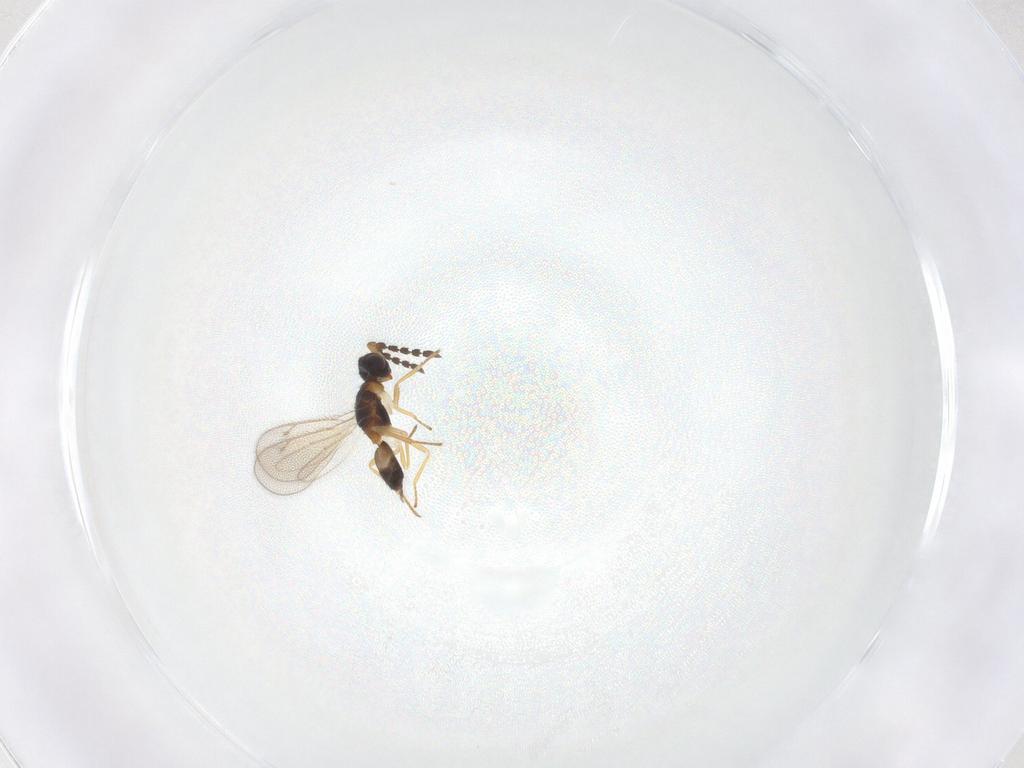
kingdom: Animalia
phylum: Arthropoda
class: Insecta
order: Hymenoptera
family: Eulophidae
